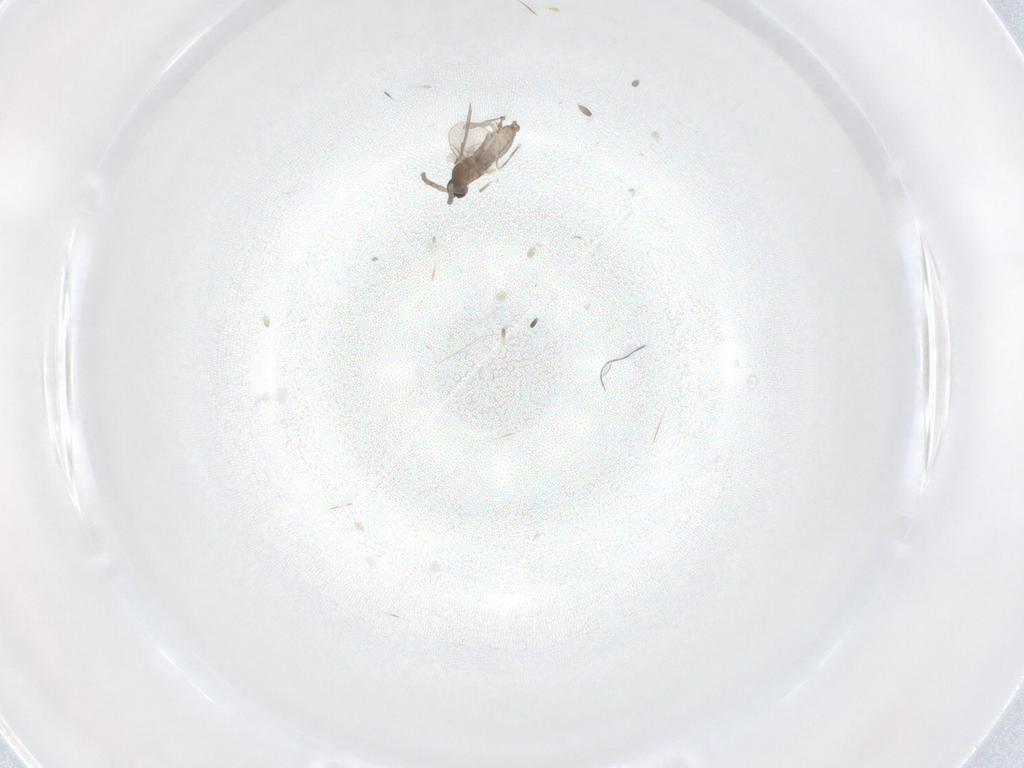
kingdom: Animalia
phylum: Arthropoda
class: Insecta
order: Diptera
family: Cecidomyiidae
